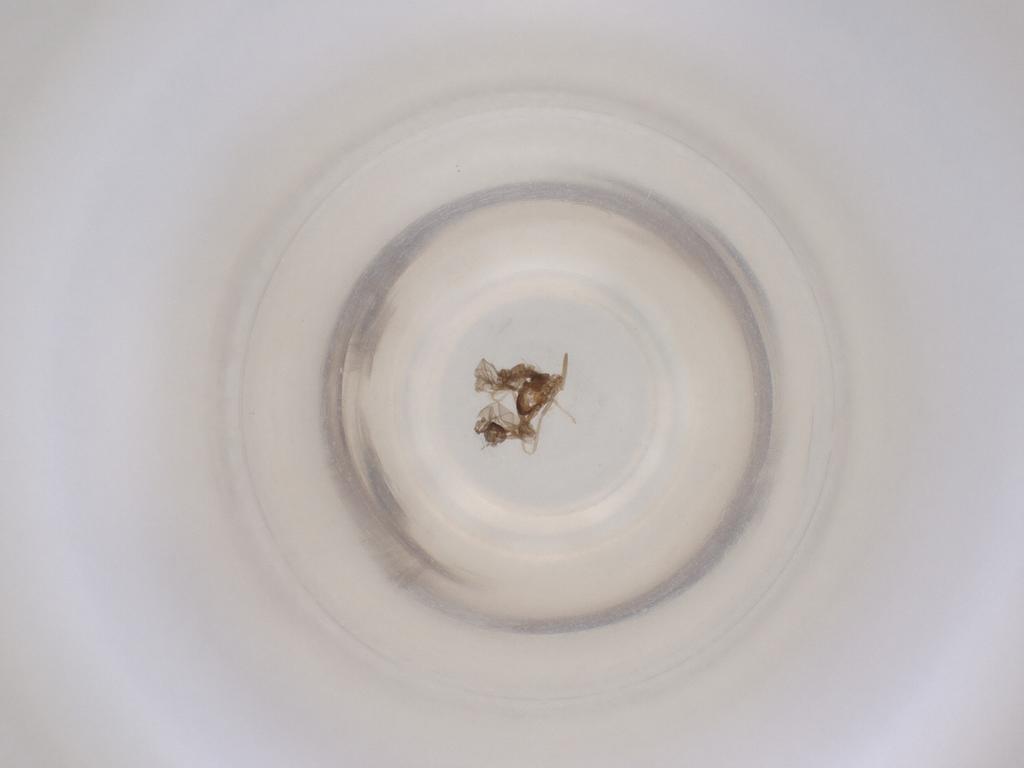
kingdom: Animalia
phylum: Arthropoda
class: Insecta
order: Diptera
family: Cecidomyiidae
